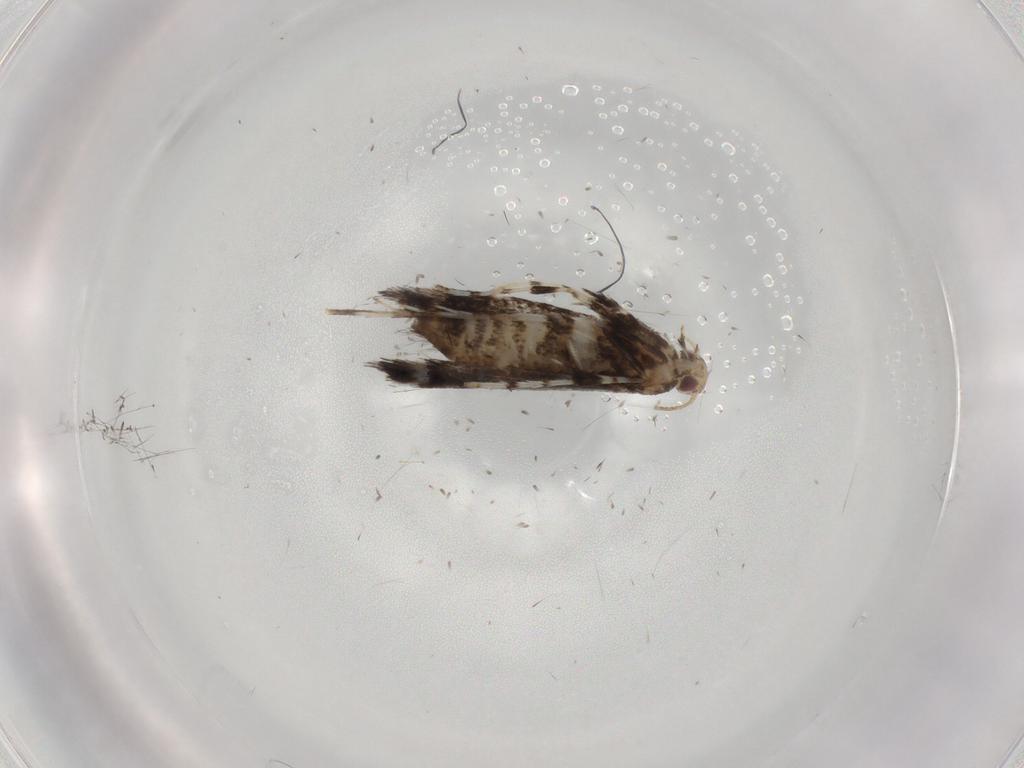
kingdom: Animalia
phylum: Arthropoda
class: Insecta
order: Lepidoptera
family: Gracillariidae
